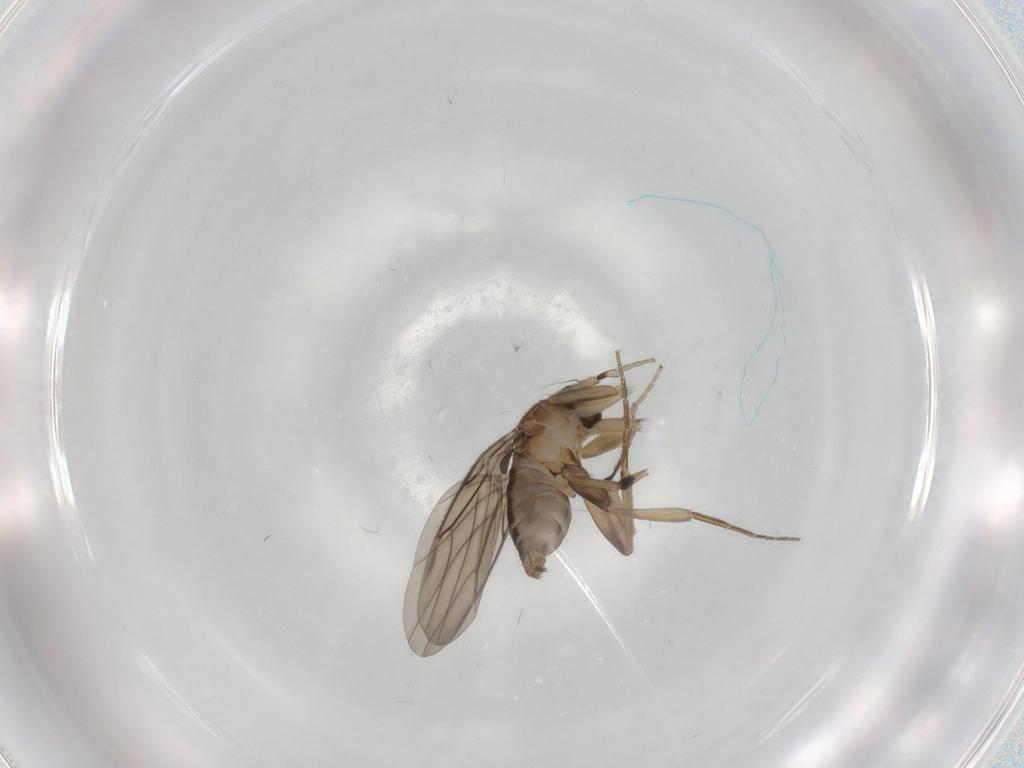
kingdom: Animalia
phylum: Arthropoda
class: Insecta
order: Diptera
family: Phoridae
